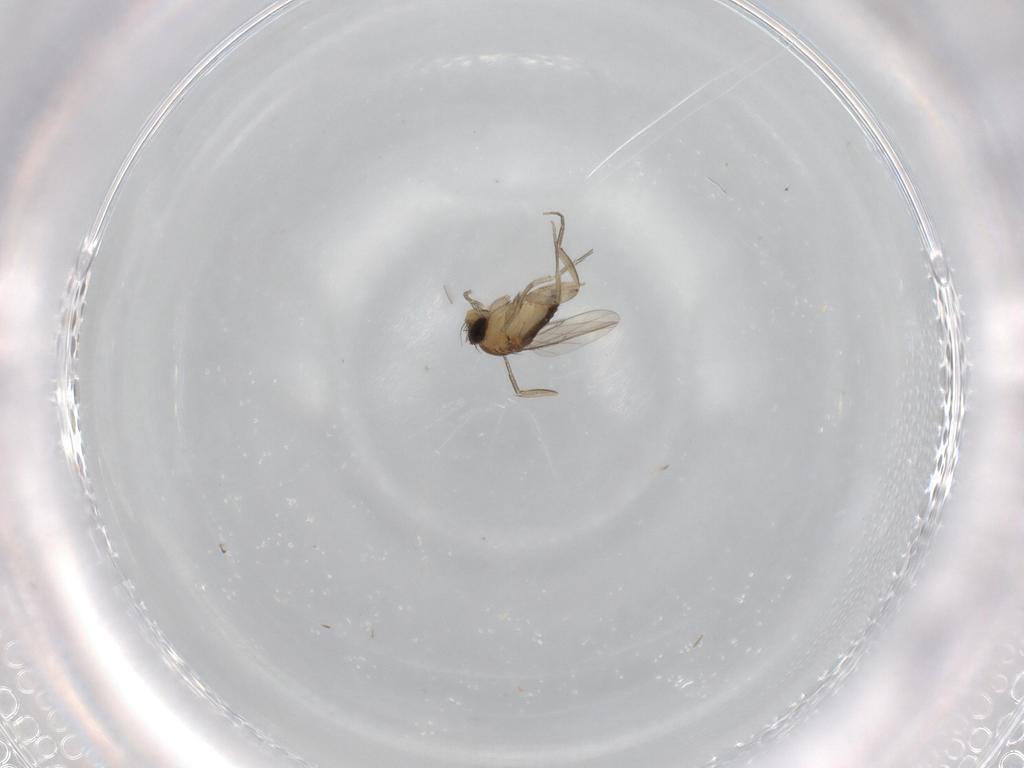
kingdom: Animalia
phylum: Arthropoda
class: Insecta
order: Diptera
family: Phoridae
